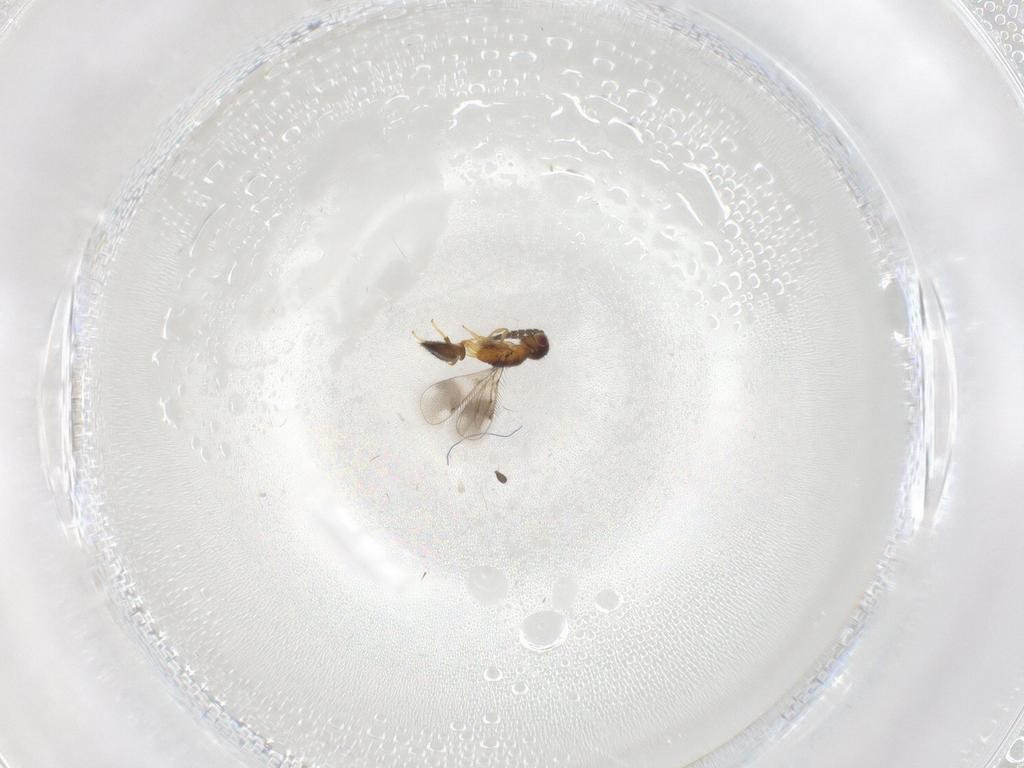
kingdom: Animalia
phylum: Arthropoda
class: Insecta
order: Hymenoptera
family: Pteromalidae
